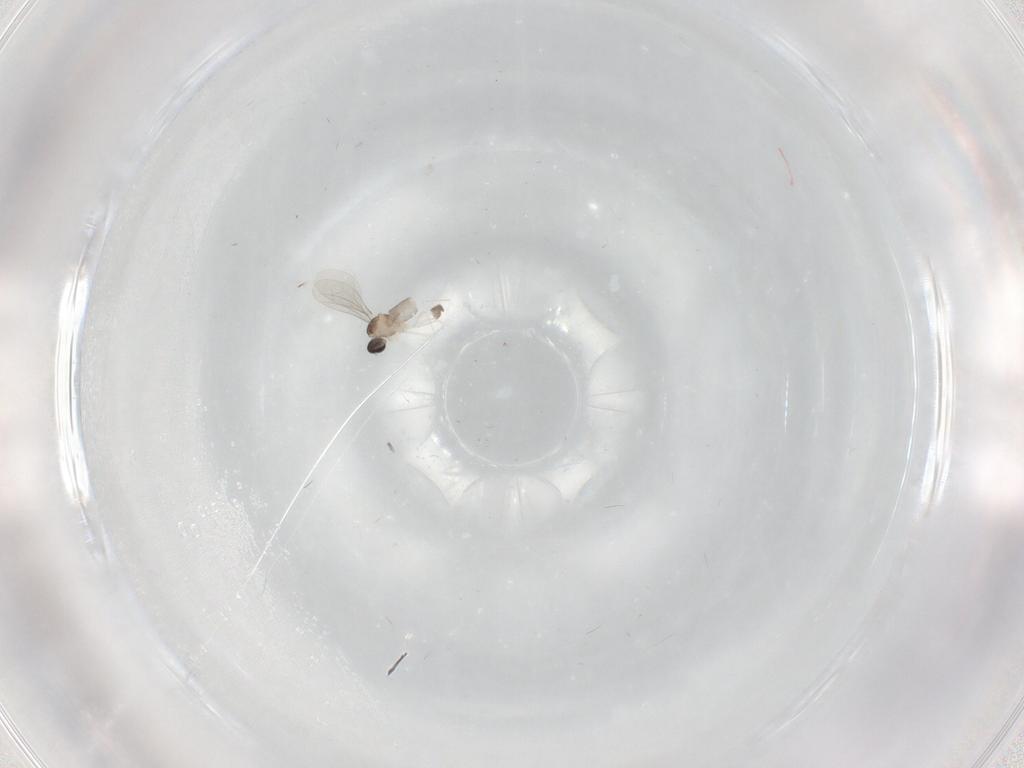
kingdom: Animalia
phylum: Arthropoda
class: Insecta
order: Diptera
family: Cecidomyiidae
